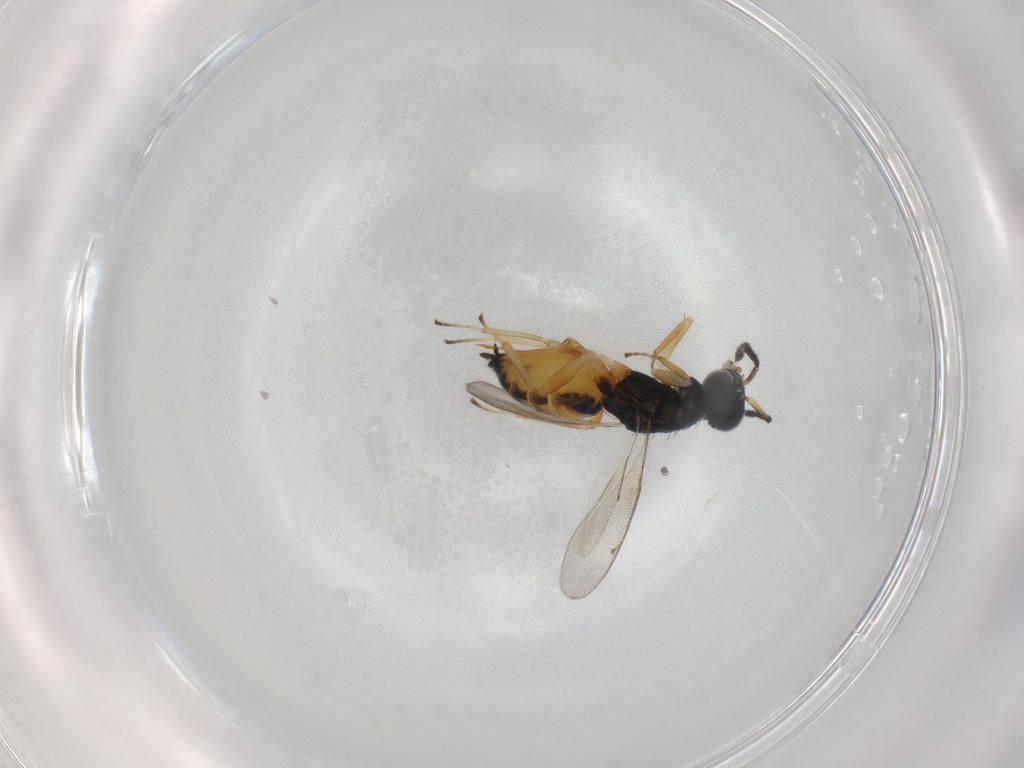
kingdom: Animalia
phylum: Arthropoda
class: Insecta
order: Hymenoptera
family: Eulophidae
